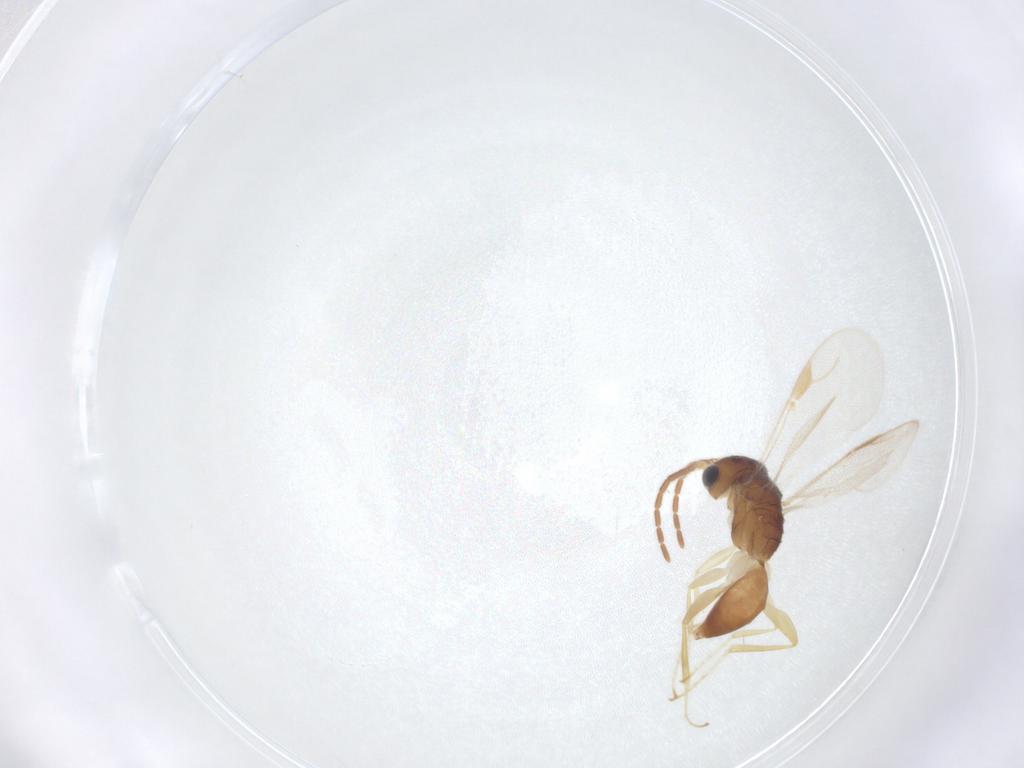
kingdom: Animalia
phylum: Arthropoda
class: Insecta
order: Hymenoptera
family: Dryinidae
